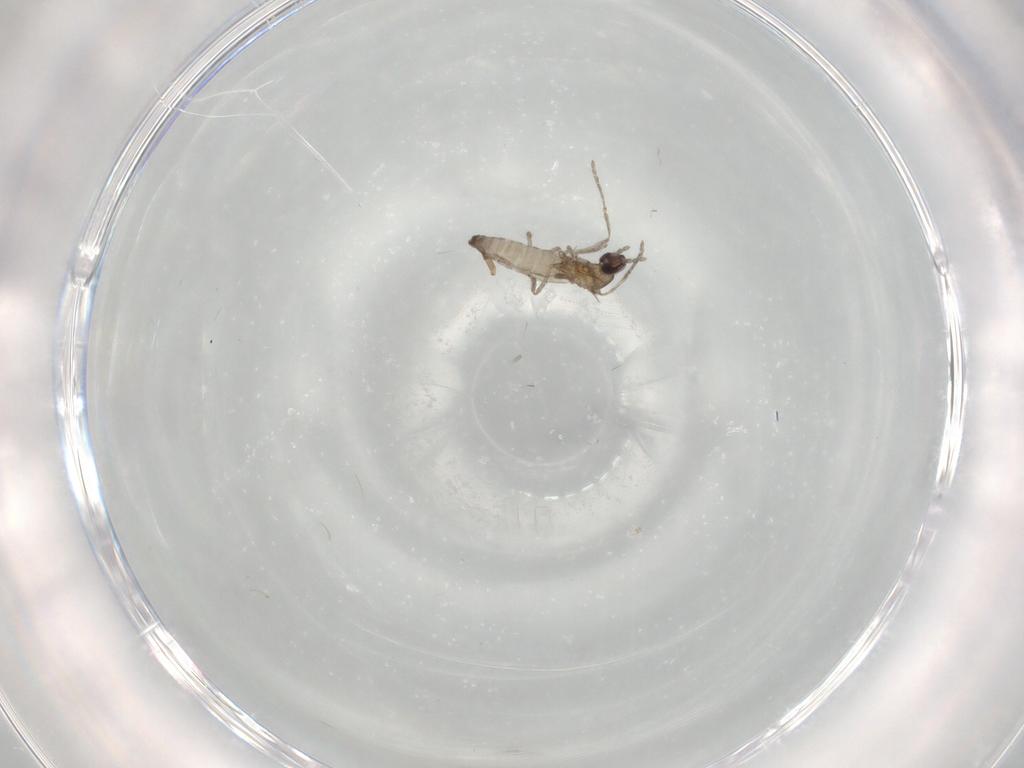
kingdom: Animalia
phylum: Arthropoda
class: Insecta
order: Diptera
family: Cecidomyiidae
